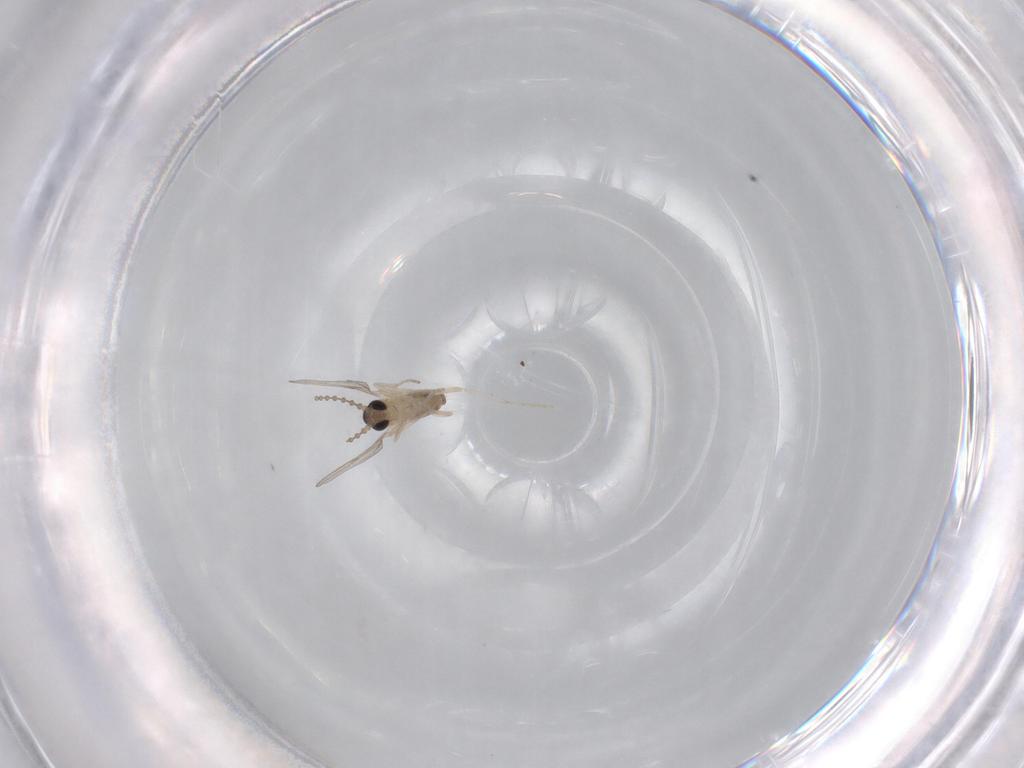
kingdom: Animalia
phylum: Arthropoda
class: Insecta
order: Diptera
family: Cecidomyiidae
